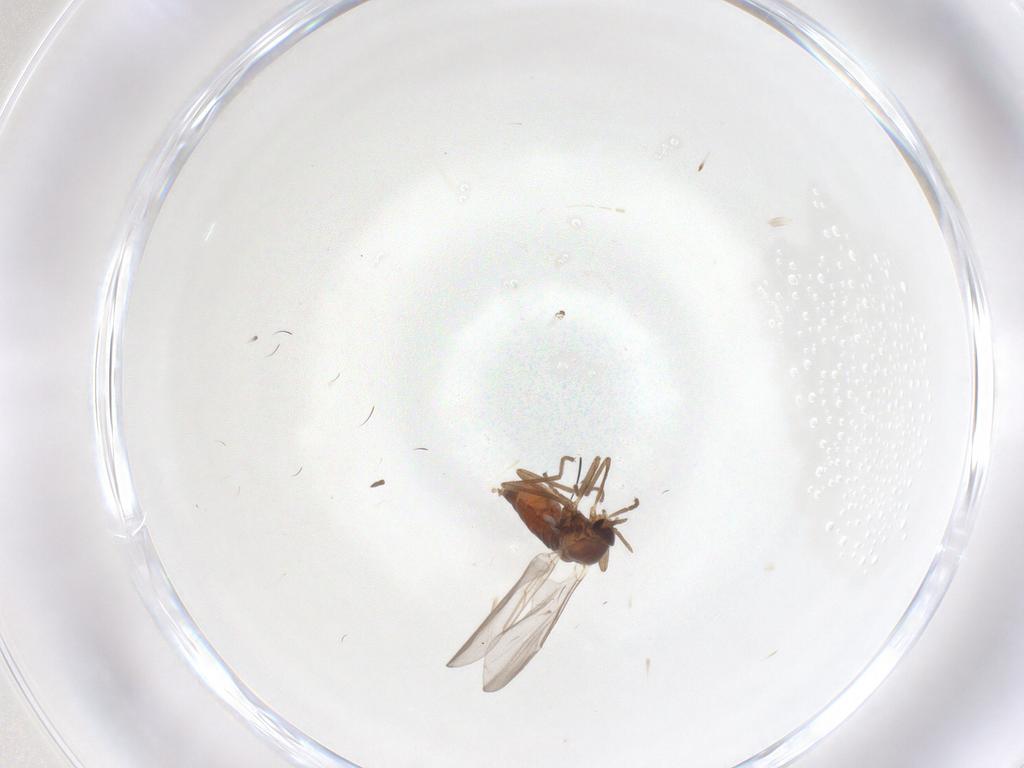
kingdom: Animalia
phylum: Arthropoda
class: Insecta
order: Diptera
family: Cecidomyiidae
